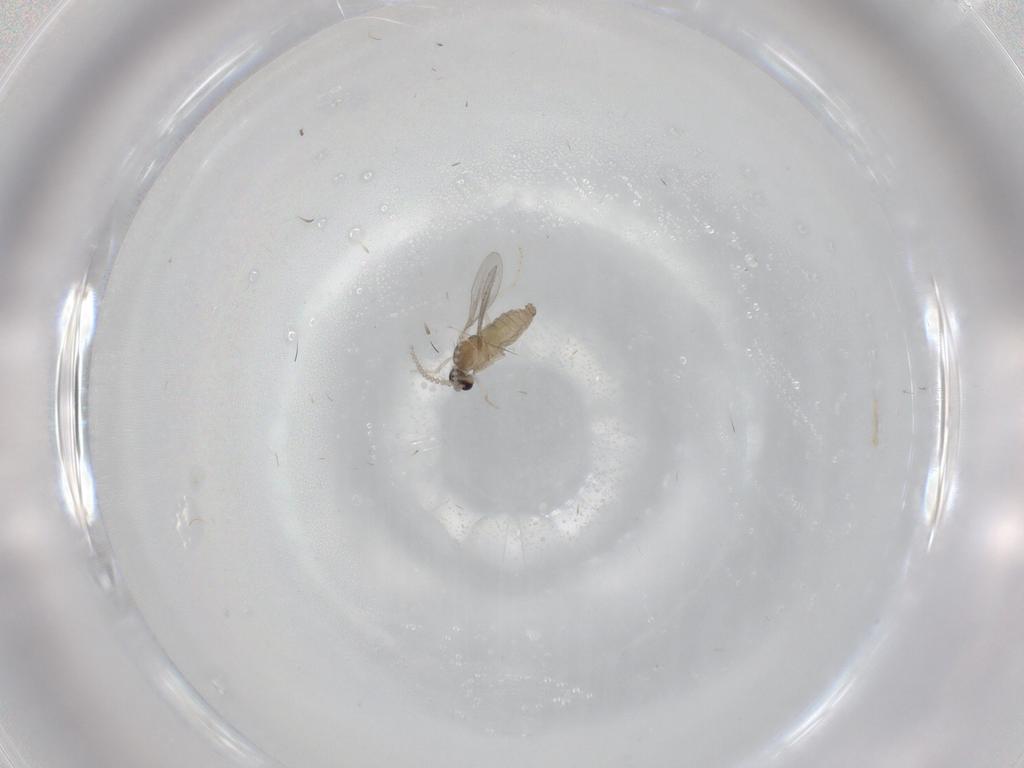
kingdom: Animalia
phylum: Arthropoda
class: Insecta
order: Diptera
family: Cecidomyiidae
